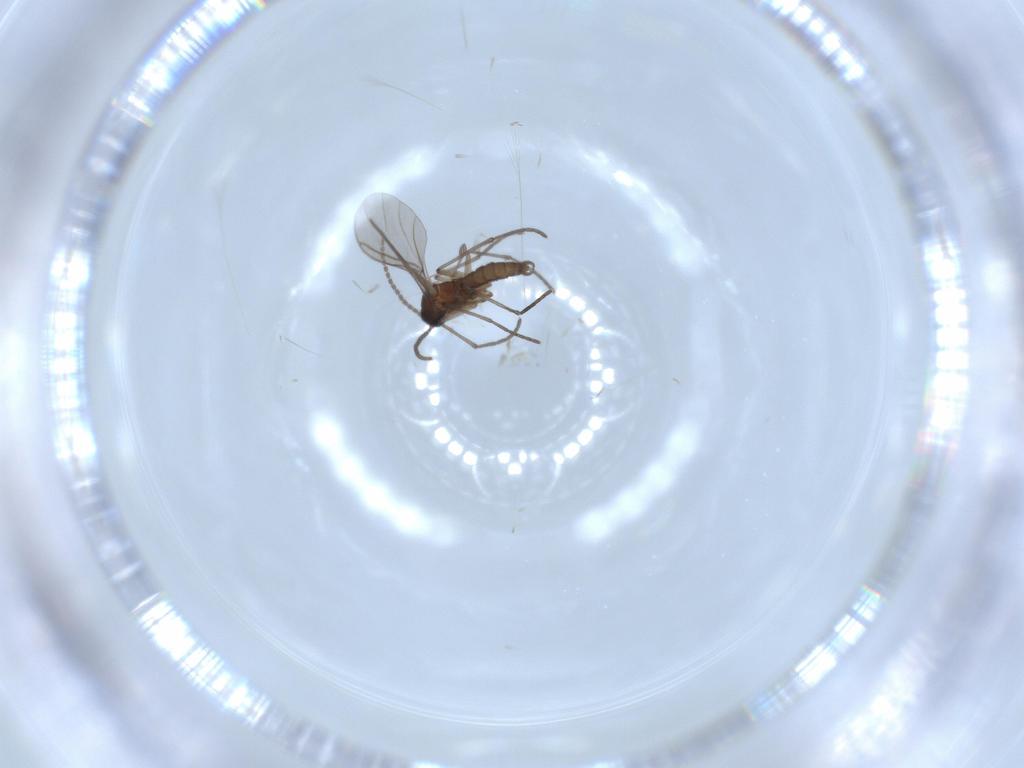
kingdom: Animalia
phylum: Arthropoda
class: Insecta
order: Diptera
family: Sciaridae
